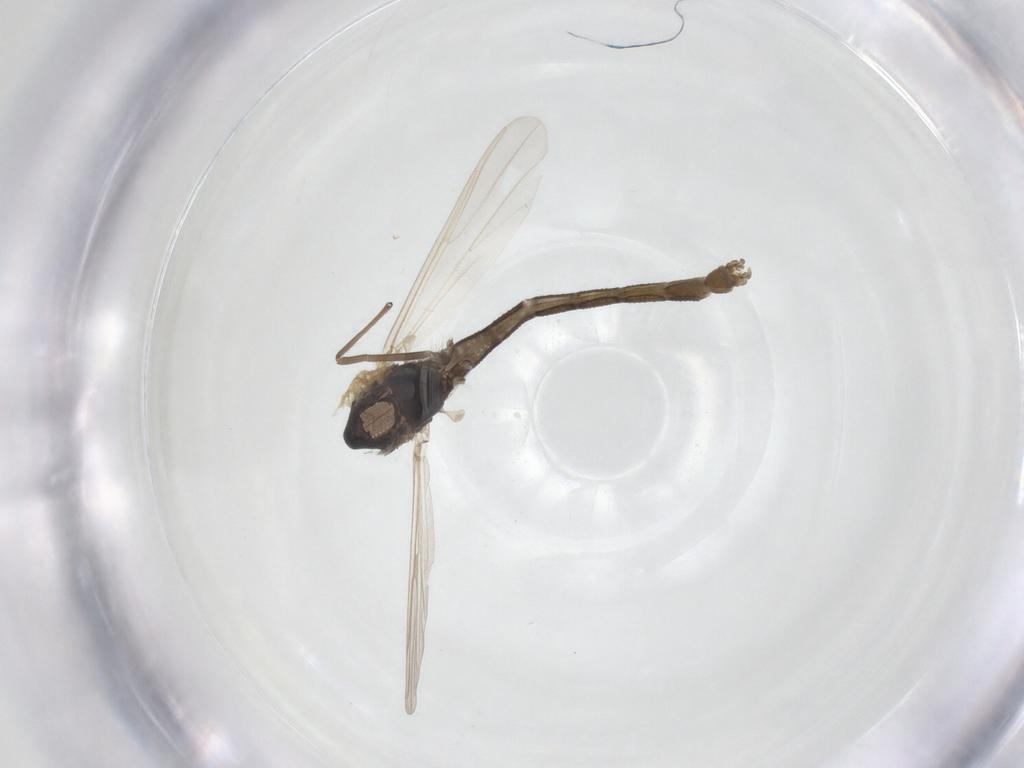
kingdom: Animalia
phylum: Arthropoda
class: Insecta
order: Diptera
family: Chironomidae
